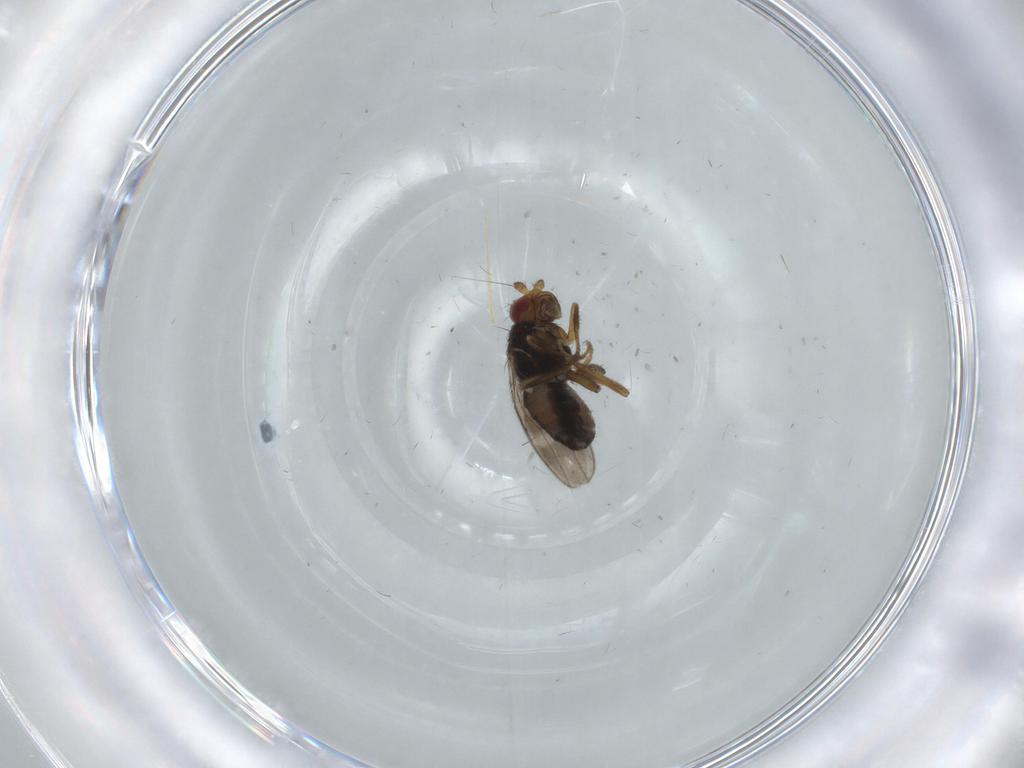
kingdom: Animalia
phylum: Arthropoda
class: Insecta
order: Diptera
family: Sphaeroceridae
